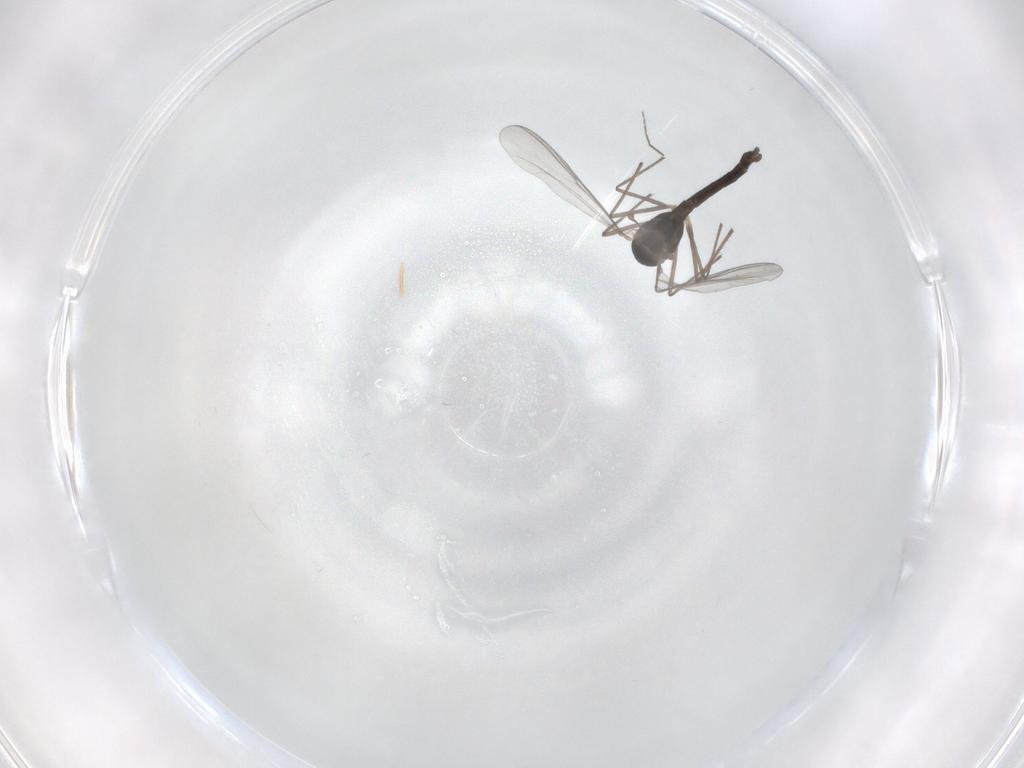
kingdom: Animalia
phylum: Arthropoda
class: Insecta
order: Diptera
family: Chironomidae
